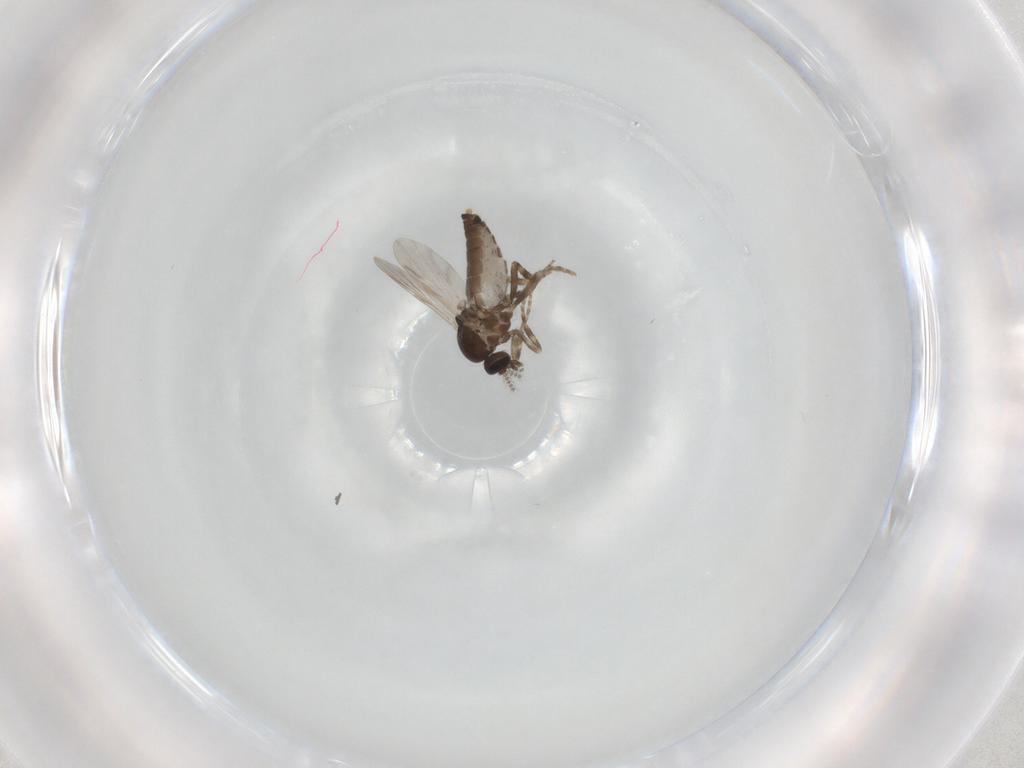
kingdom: Animalia
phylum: Arthropoda
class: Insecta
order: Diptera
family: Ceratopogonidae
